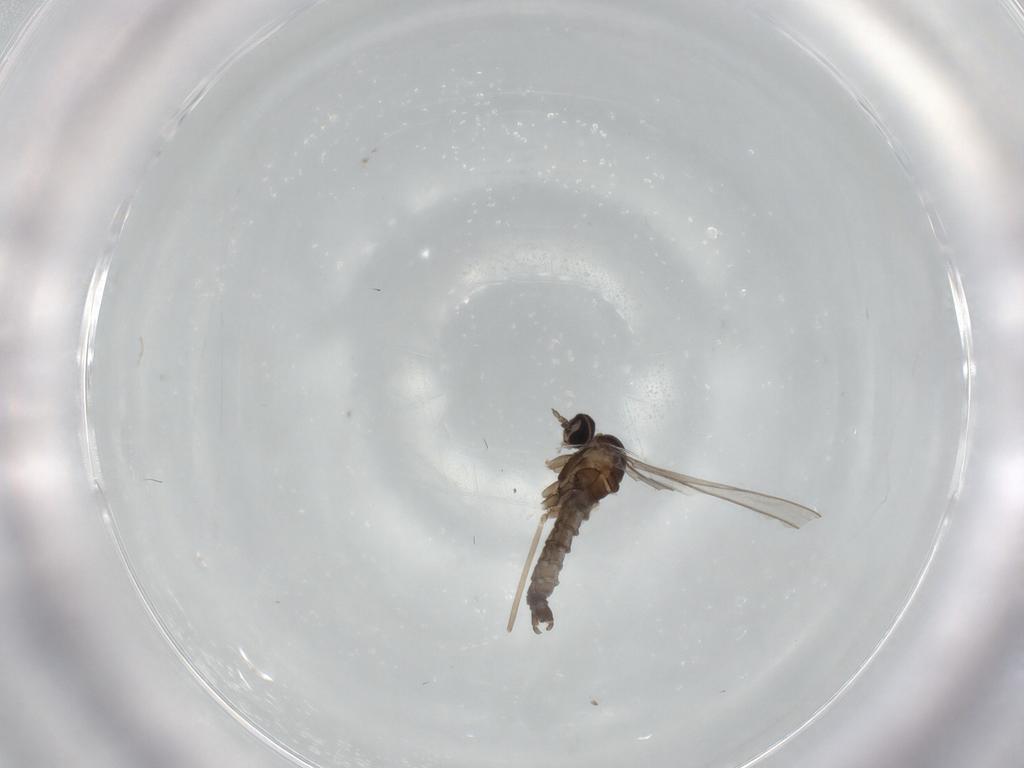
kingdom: Animalia
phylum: Arthropoda
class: Insecta
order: Diptera
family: Cecidomyiidae
